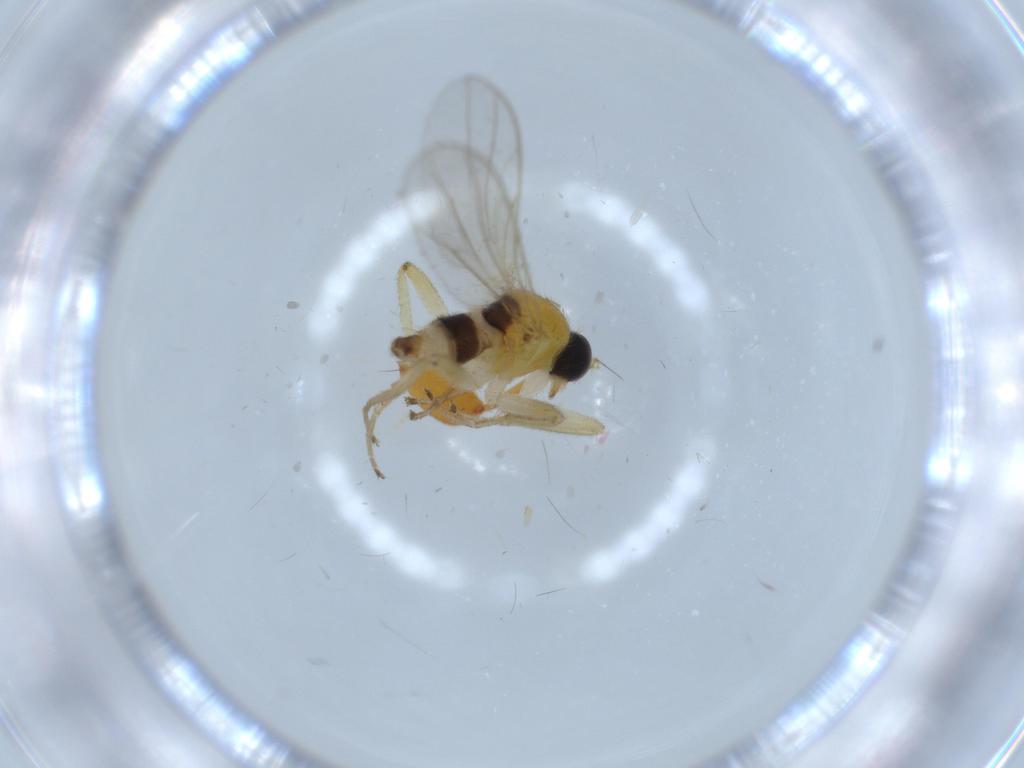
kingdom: Animalia
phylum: Arthropoda
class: Insecta
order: Diptera
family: Hybotidae
